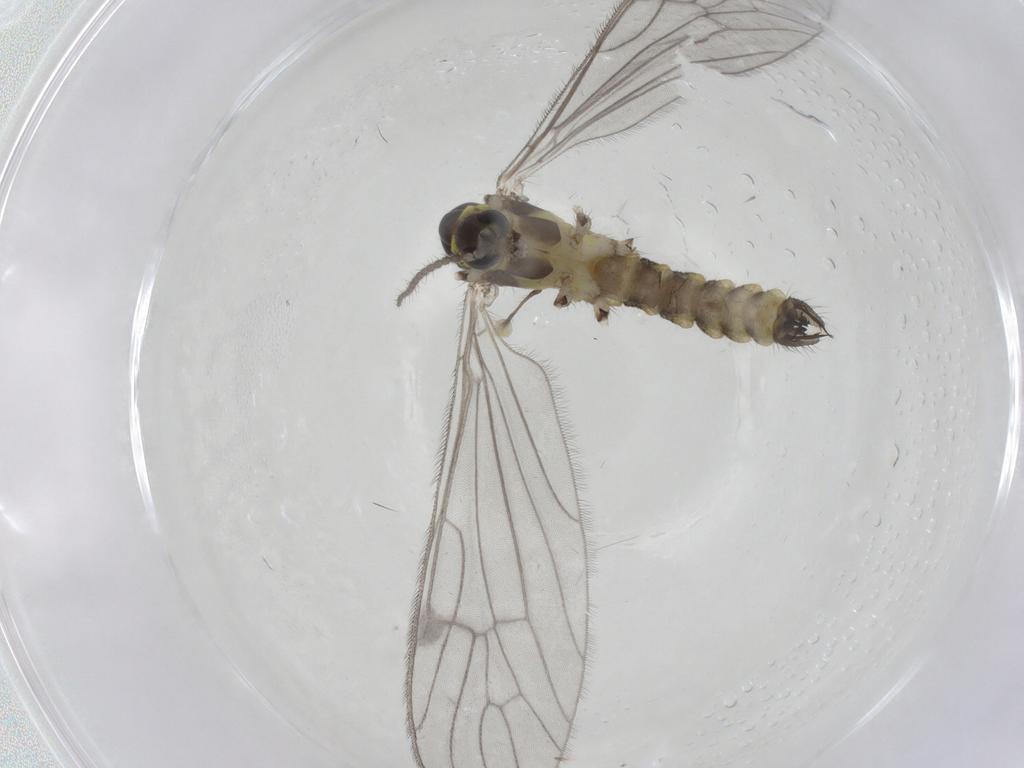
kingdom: Animalia
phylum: Arthropoda
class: Insecta
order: Diptera
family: Limoniidae
